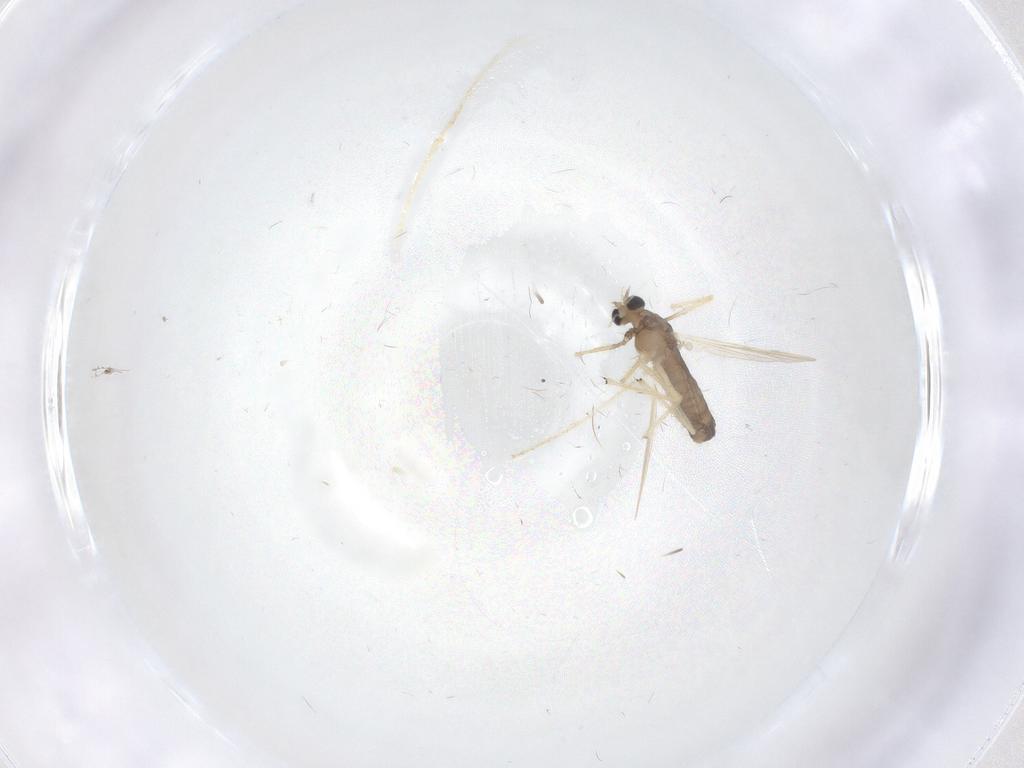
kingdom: Animalia
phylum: Arthropoda
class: Insecta
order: Diptera
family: Chironomidae
